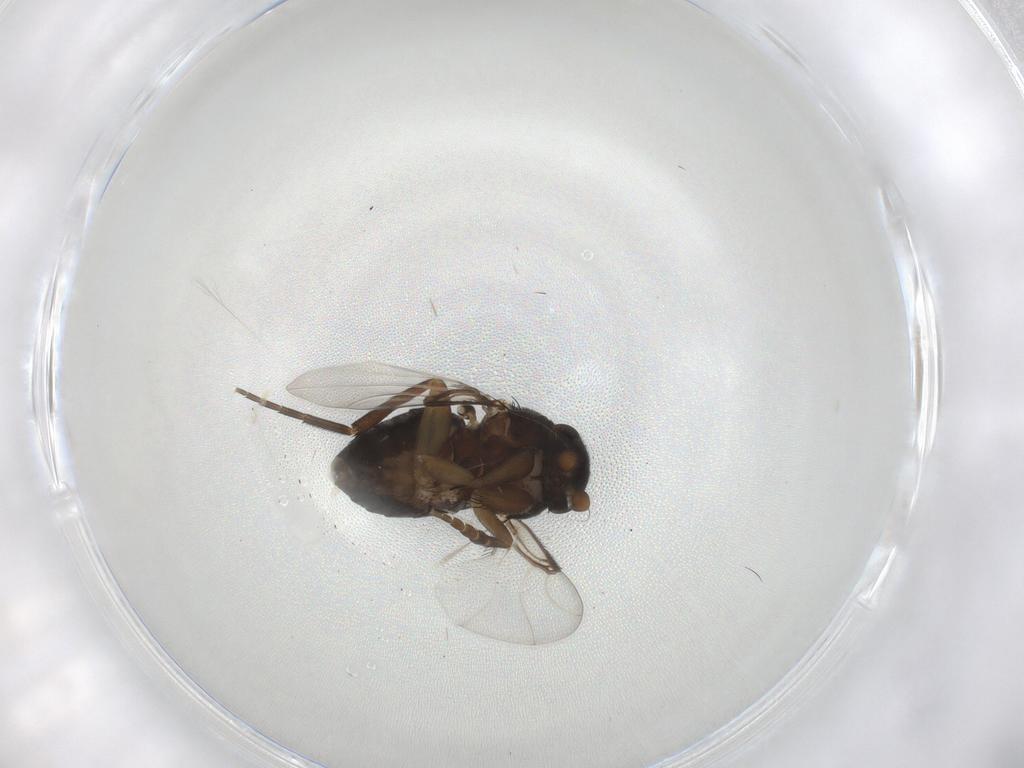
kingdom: Animalia
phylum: Arthropoda
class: Insecta
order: Diptera
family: Phoridae
